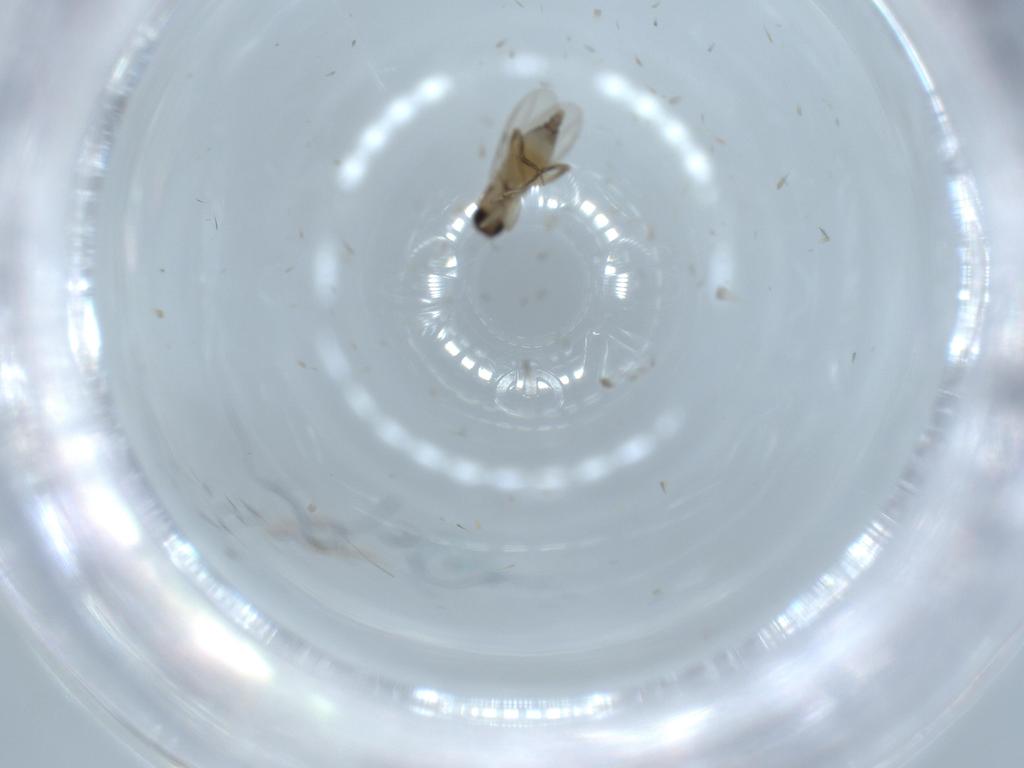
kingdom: Animalia
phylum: Arthropoda
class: Insecta
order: Diptera
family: Phoridae
